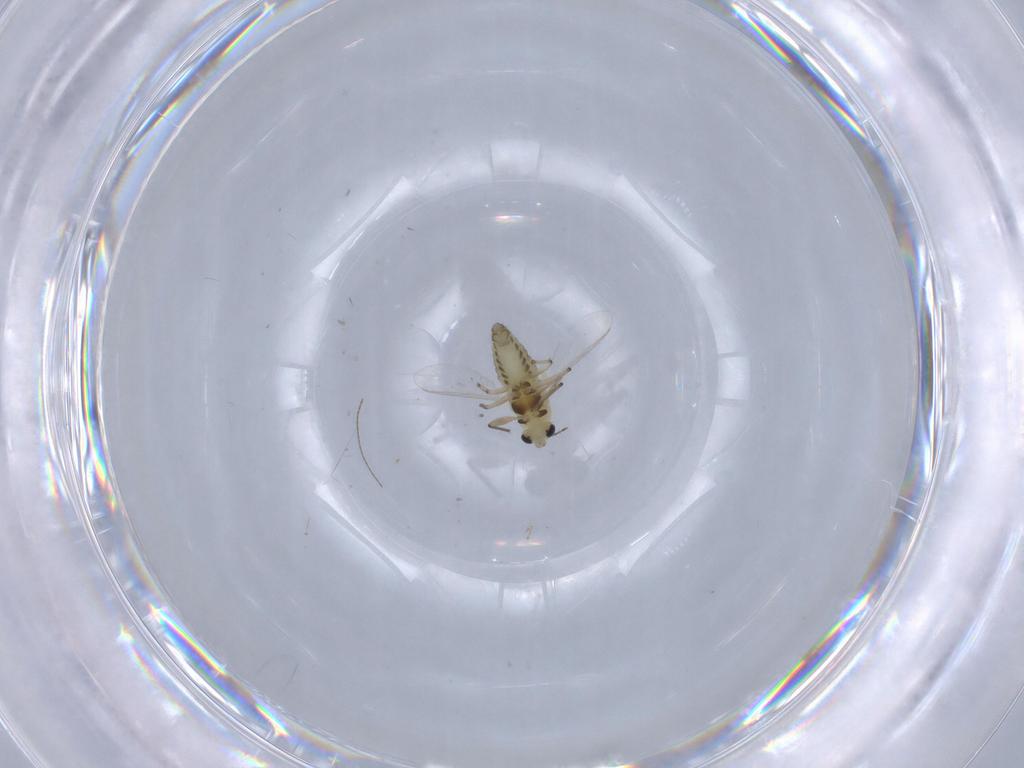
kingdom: Animalia
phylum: Arthropoda
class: Insecta
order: Diptera
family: Chironomidae
